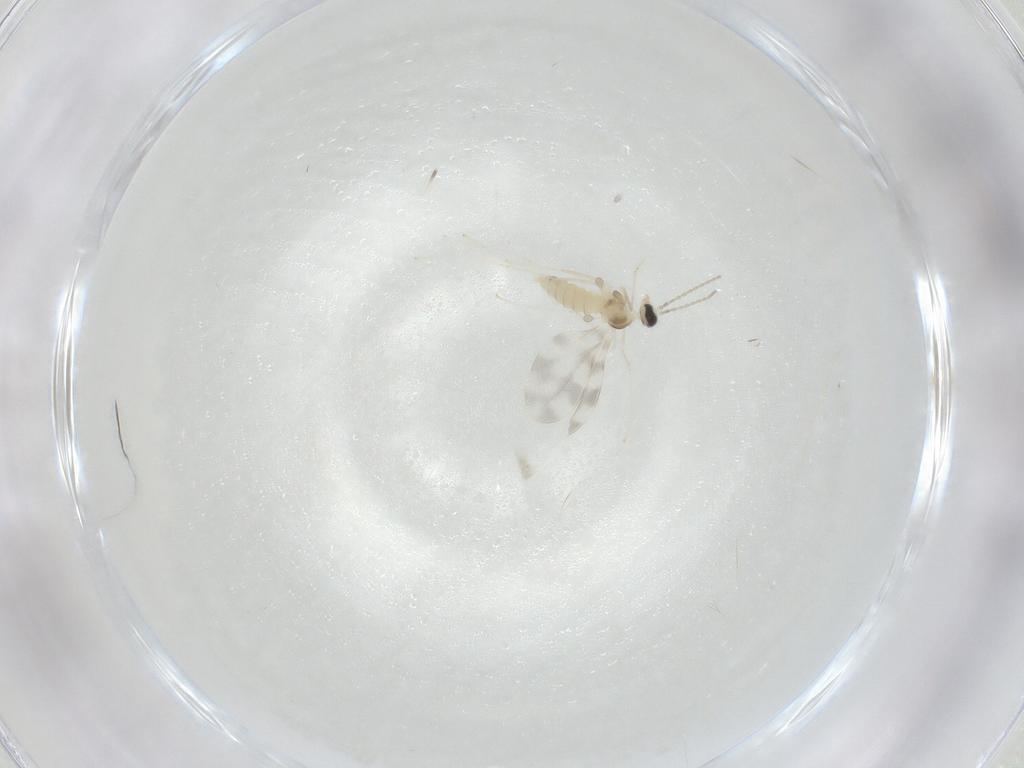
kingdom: Animalia
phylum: Arthropoda
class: Insecta
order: Diptera
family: Cecidomyiidae
